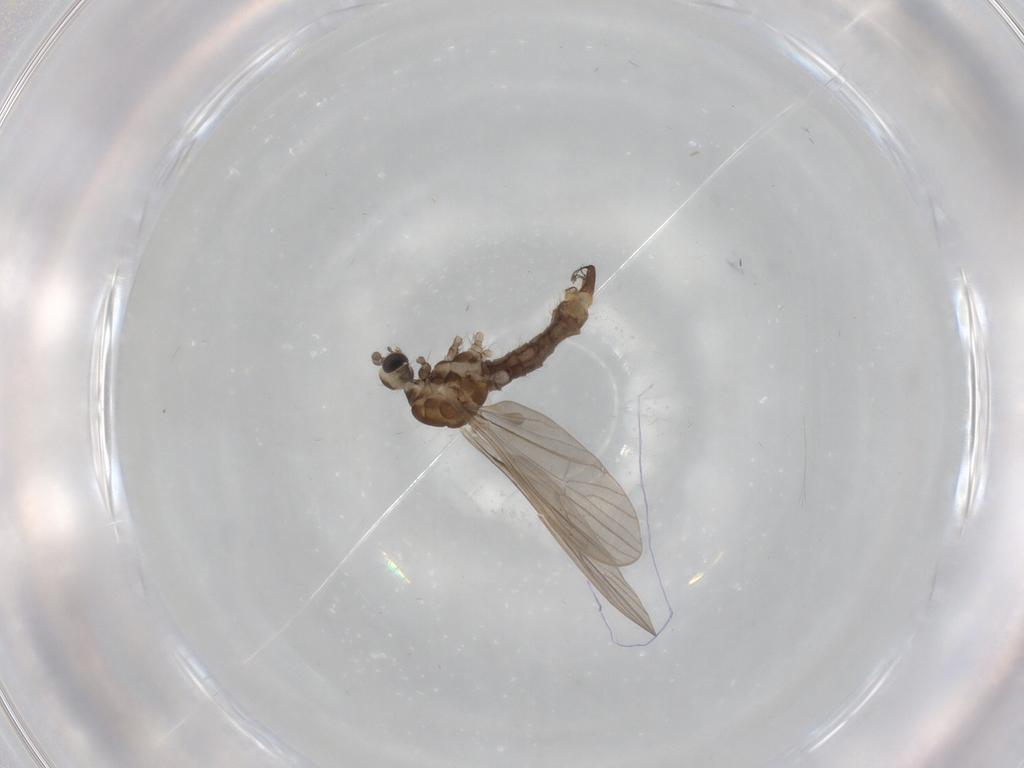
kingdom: Animalia
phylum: Arthropoda
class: Insecta
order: Diptera
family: Limoniidae
